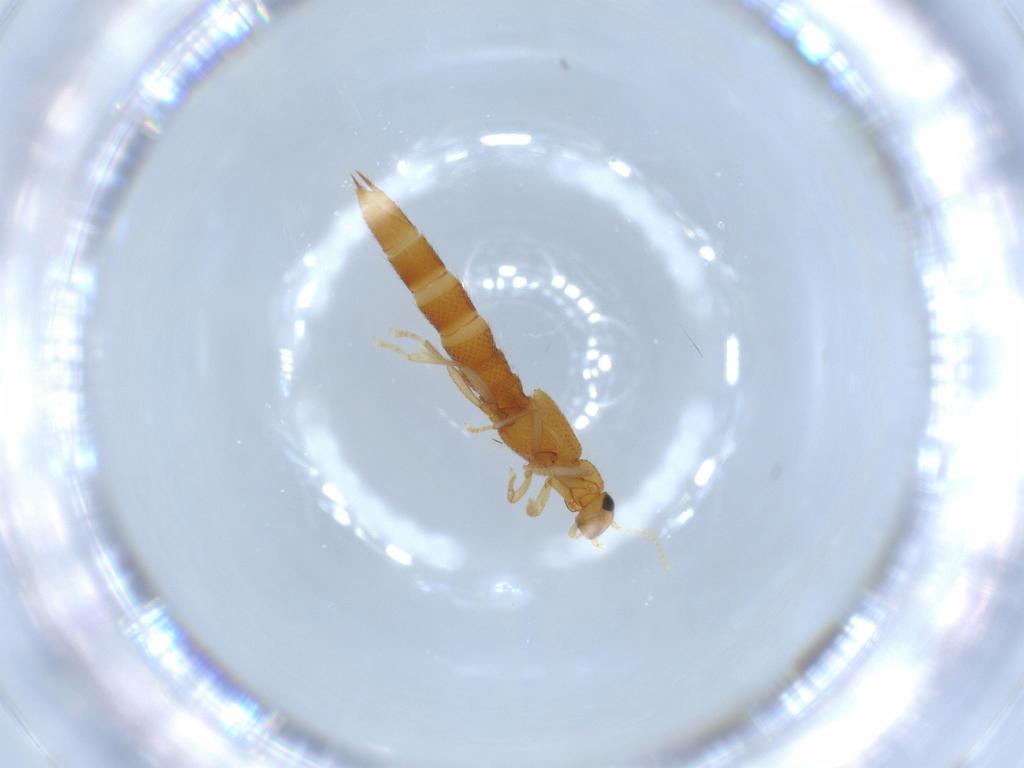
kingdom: Animalia
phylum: Arthropoda
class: Insecta
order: Coleoptera
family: Staphylinidae
